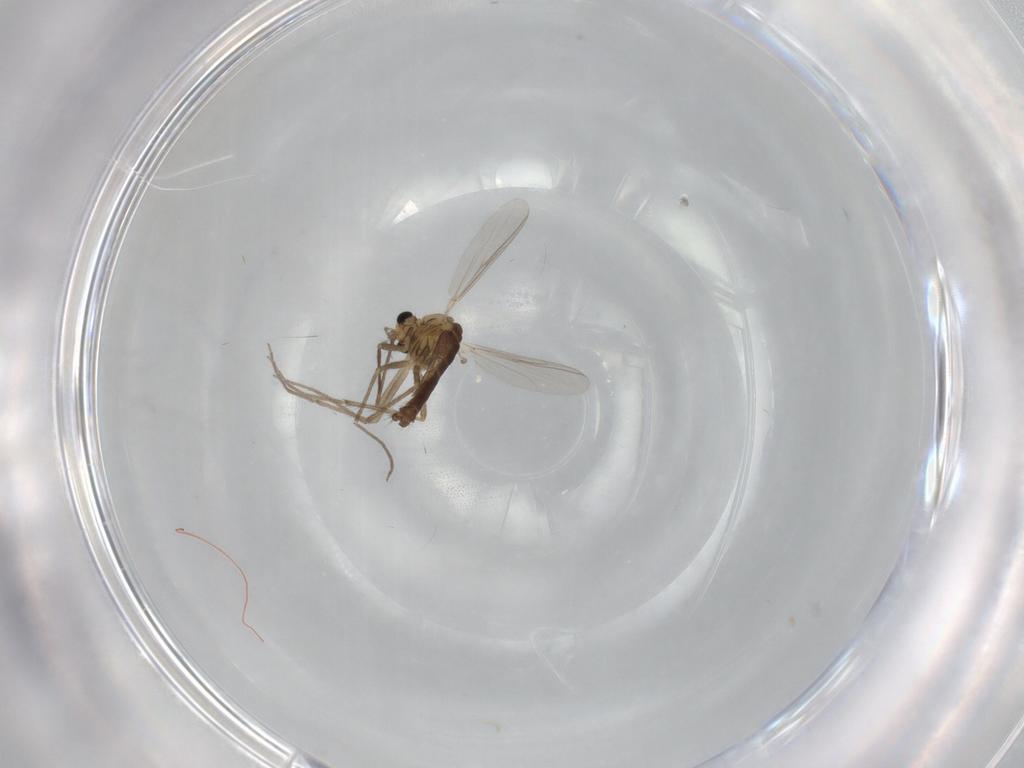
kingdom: Animalia
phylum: Arthropoda
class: Insecta
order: Diptera
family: Chironomidae
